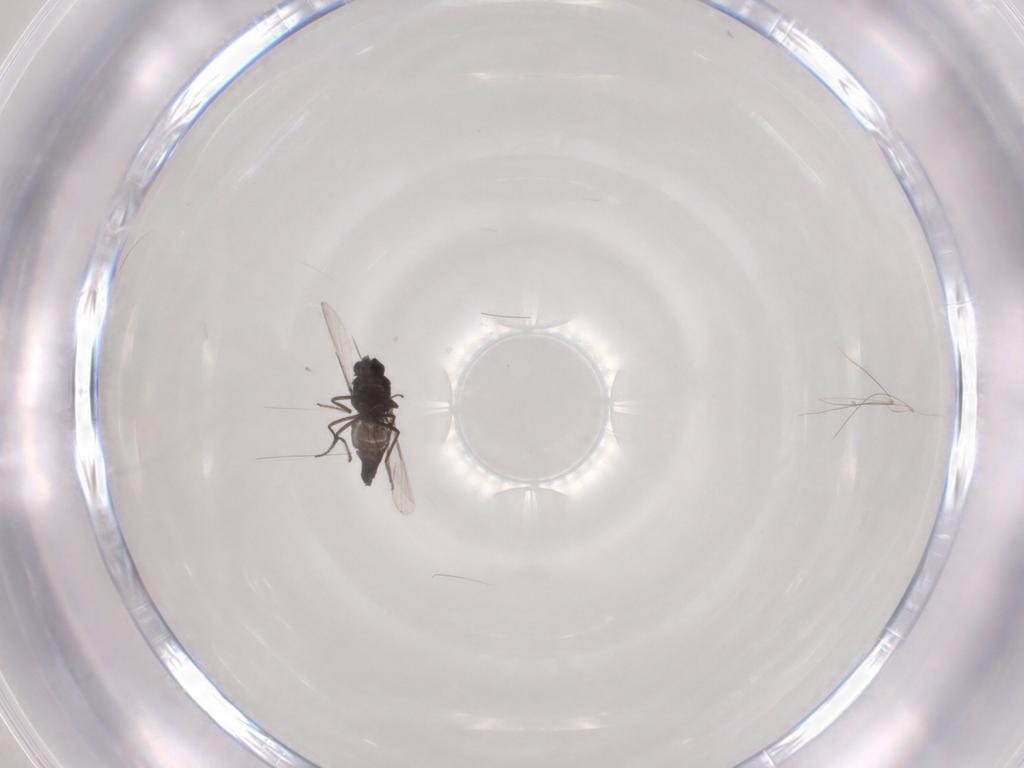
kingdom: Animalia
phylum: Arthropoda
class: Insecta
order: Diptera
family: Ceratopogonidae
